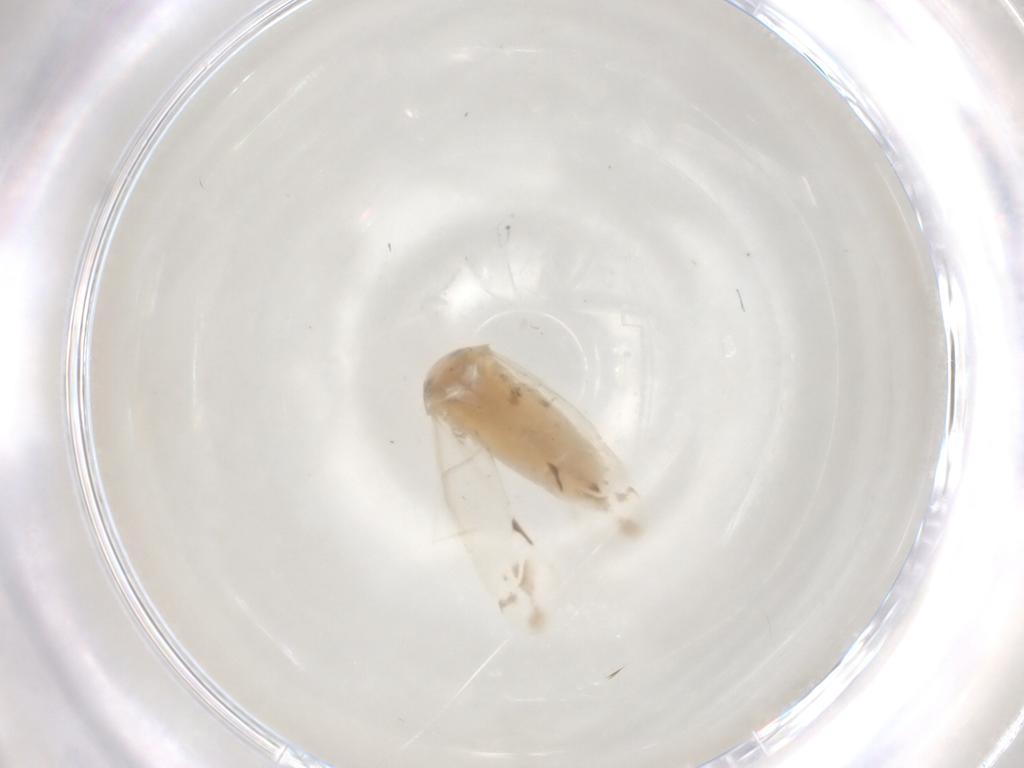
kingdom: Animalia
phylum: Arthropoda
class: Insecta
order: Hemiptera
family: Miridae
